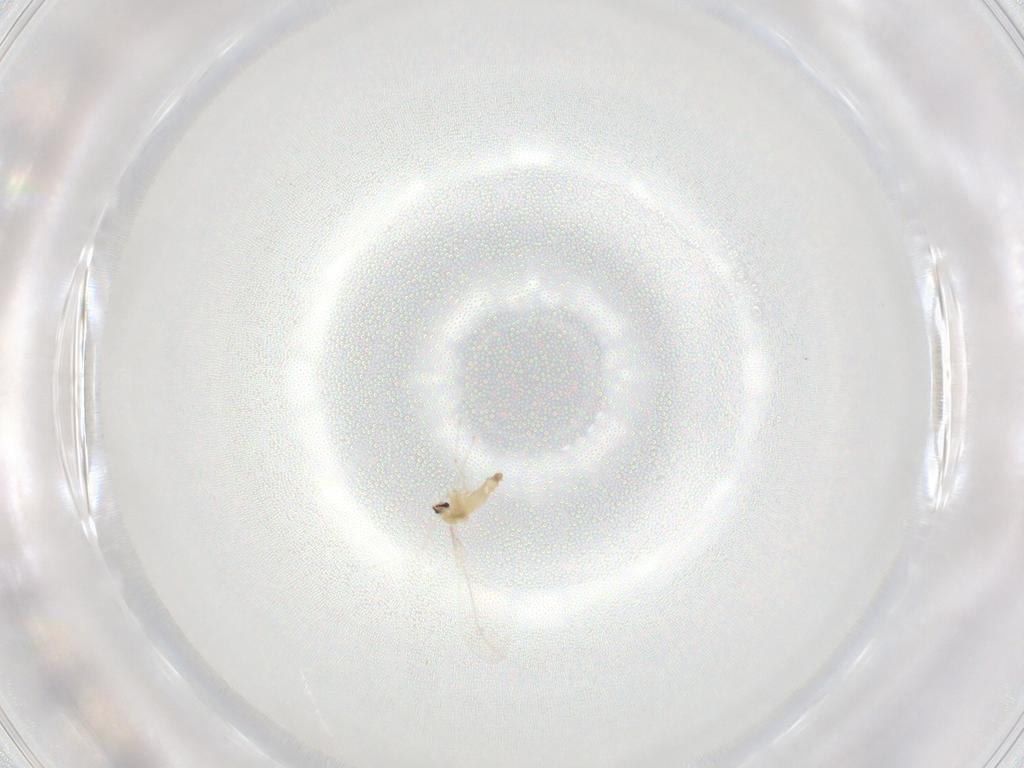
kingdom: Animalia
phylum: Arthropoda
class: Insecta
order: Diptera
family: Cecidomyiidae
